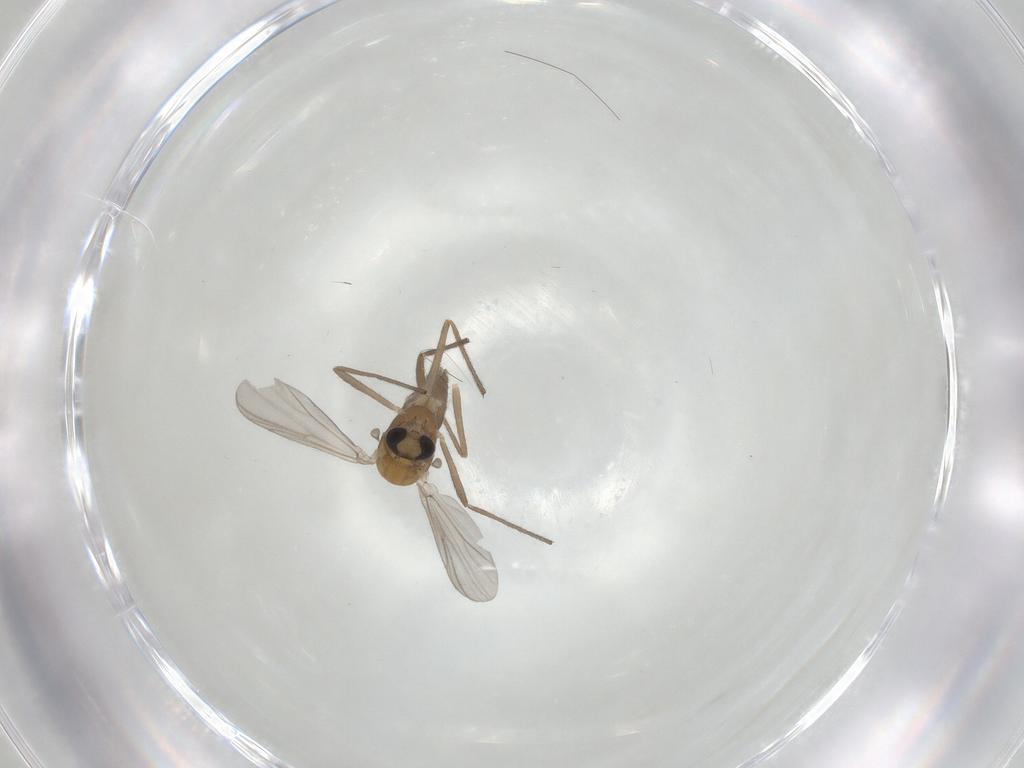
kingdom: Animalia
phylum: Arthropoda
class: Insecta
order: Diptera
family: Chironomidae
